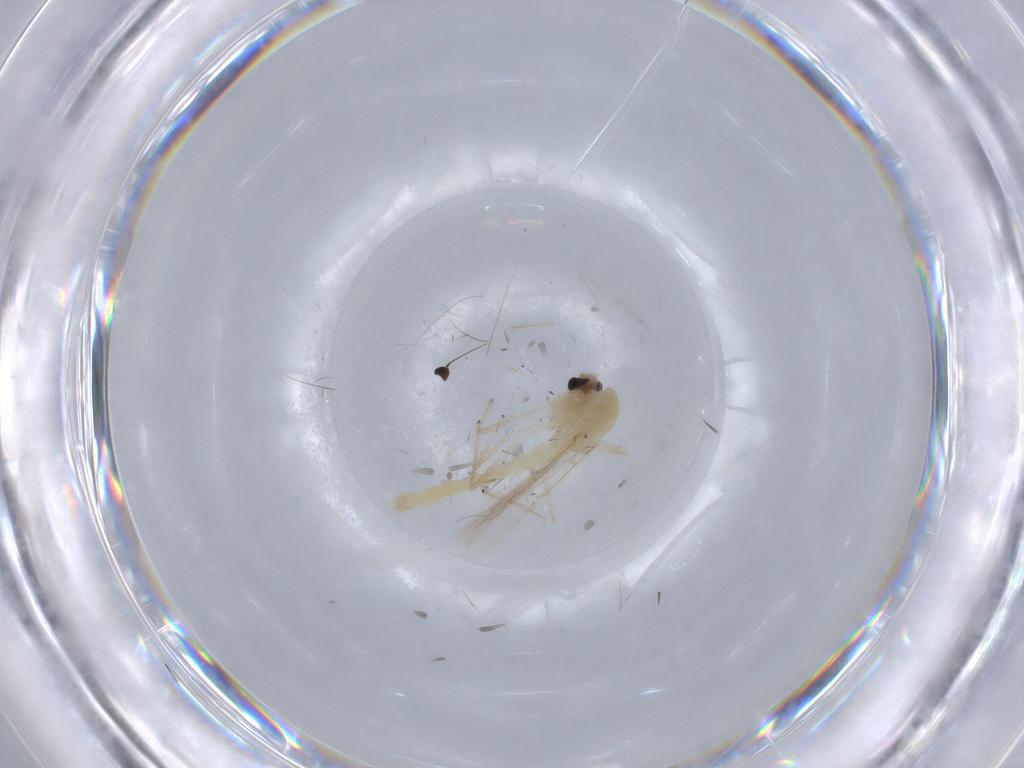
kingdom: Animalia
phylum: Arthropoda
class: Insecta
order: Diptera
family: Chironomidae
